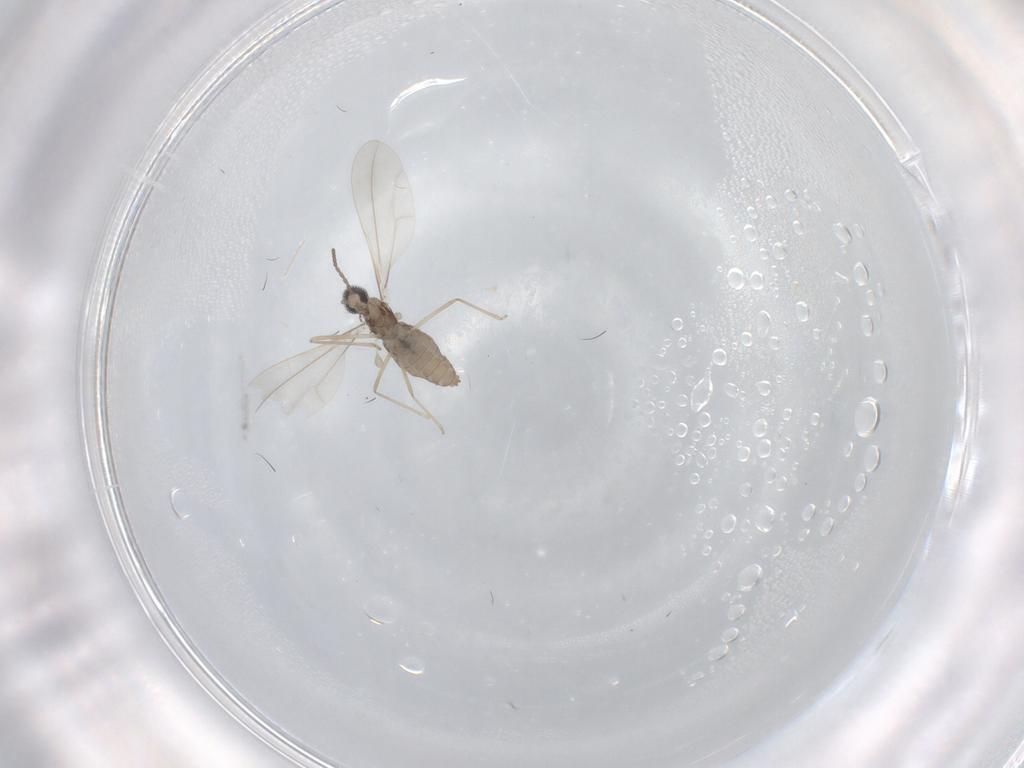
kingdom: Animalia
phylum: Arthropoda
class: Insecta
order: Diptera
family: Cecidomyiidae
